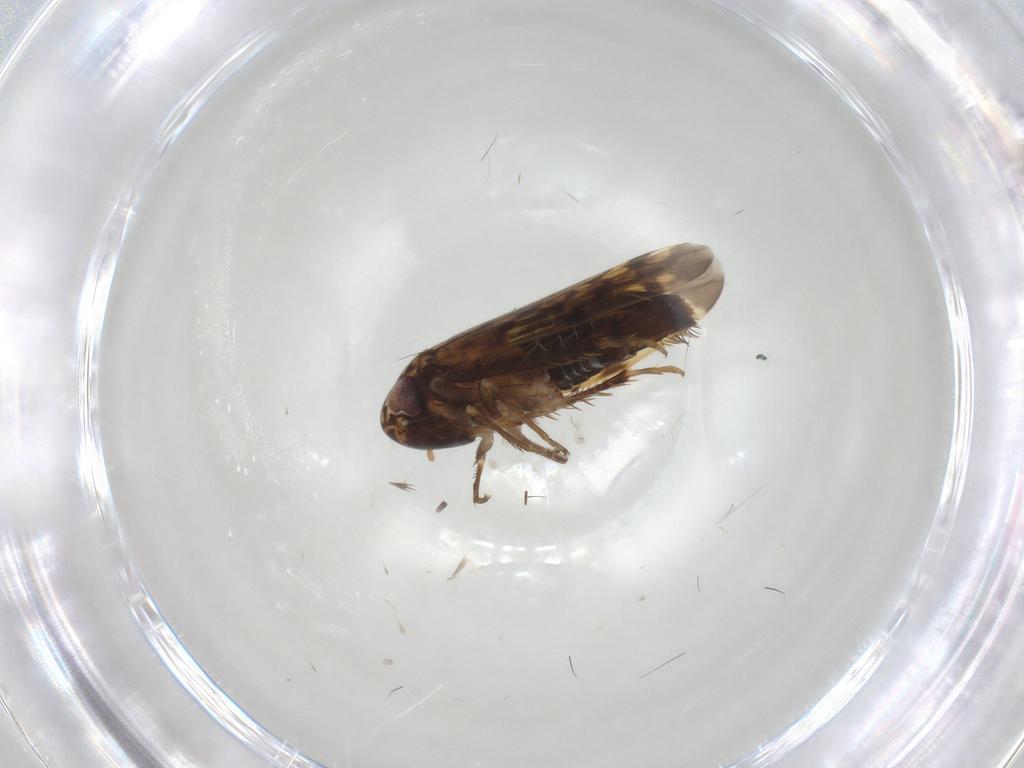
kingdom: Animalia
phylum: Arthropoda
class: Insecta
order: Hemiptera
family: Cicadellidae
